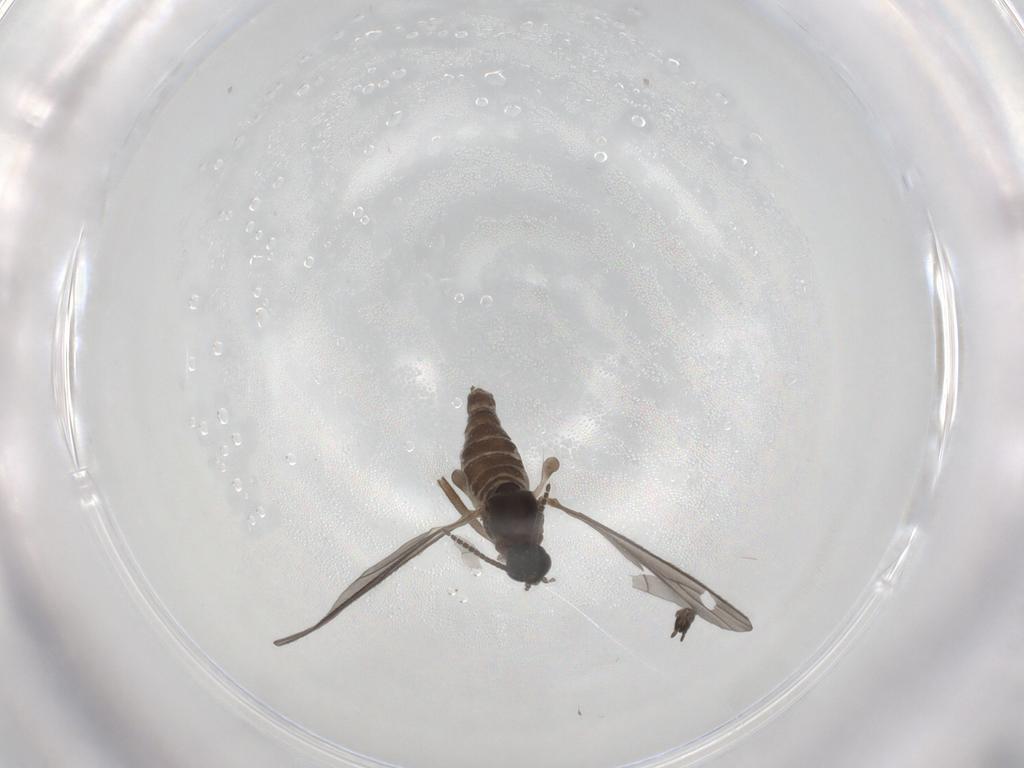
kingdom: Animalia
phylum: Arthropoda
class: Insecta
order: Diptera
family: Sciaridae
